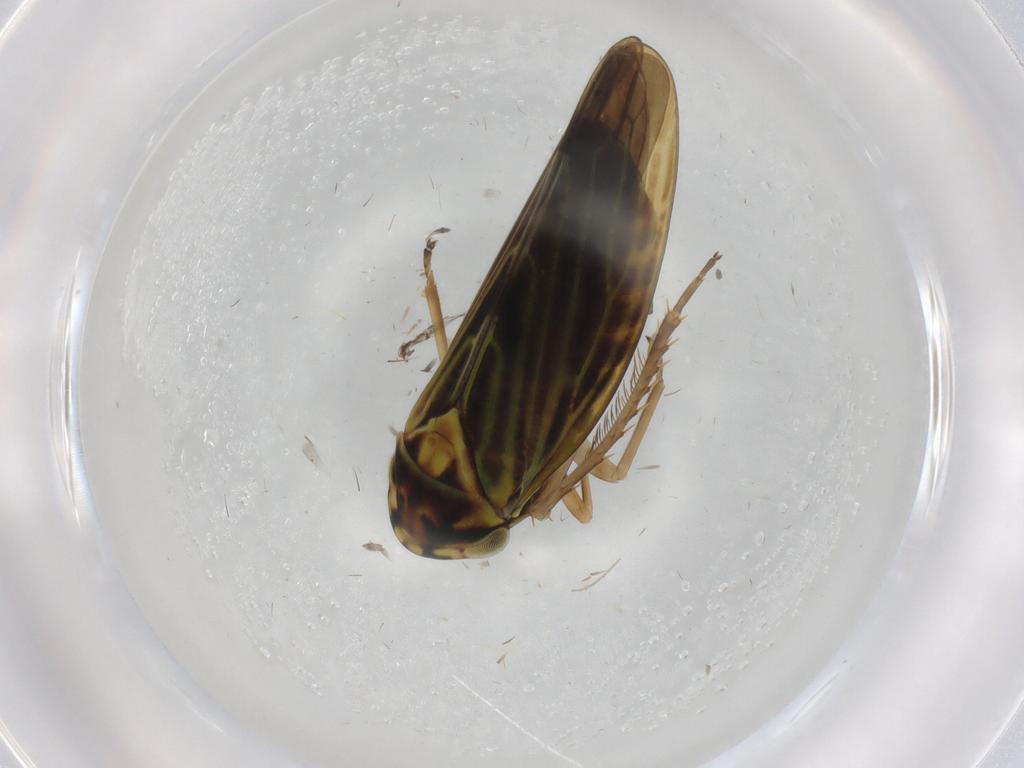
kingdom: Animalia
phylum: Arthropoda
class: Insecta
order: Hemiptera
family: Cicadellidae
